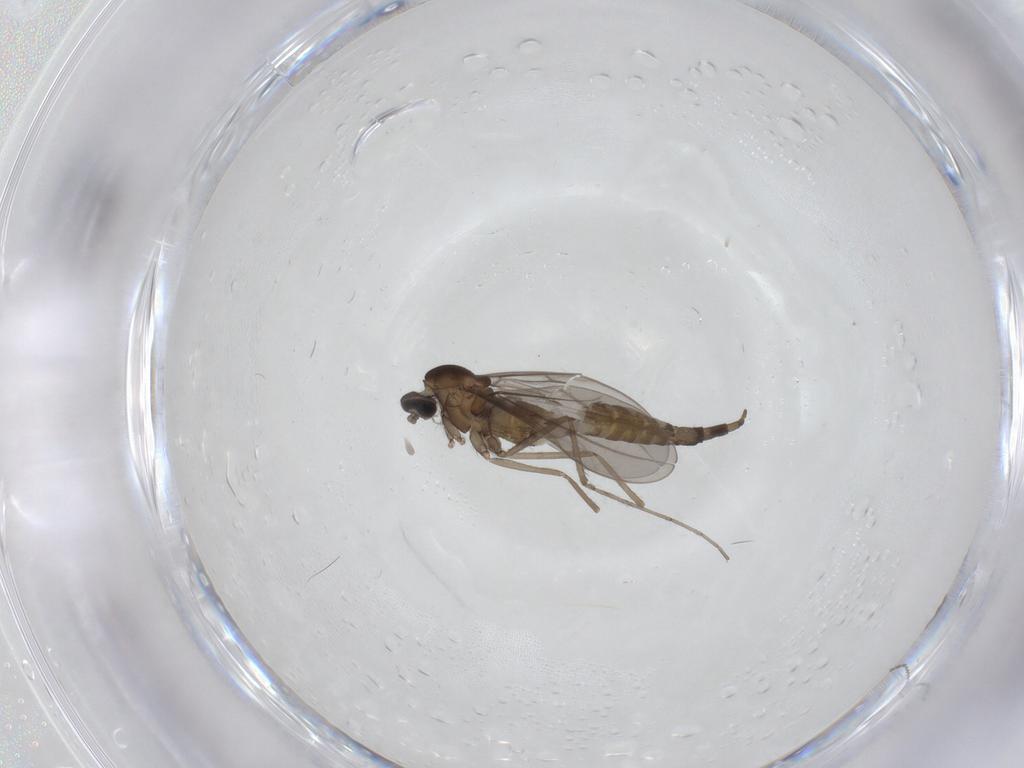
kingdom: Animalia
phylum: Arthropoda
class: Insecta
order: Diptera
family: Cecidomyiidae
